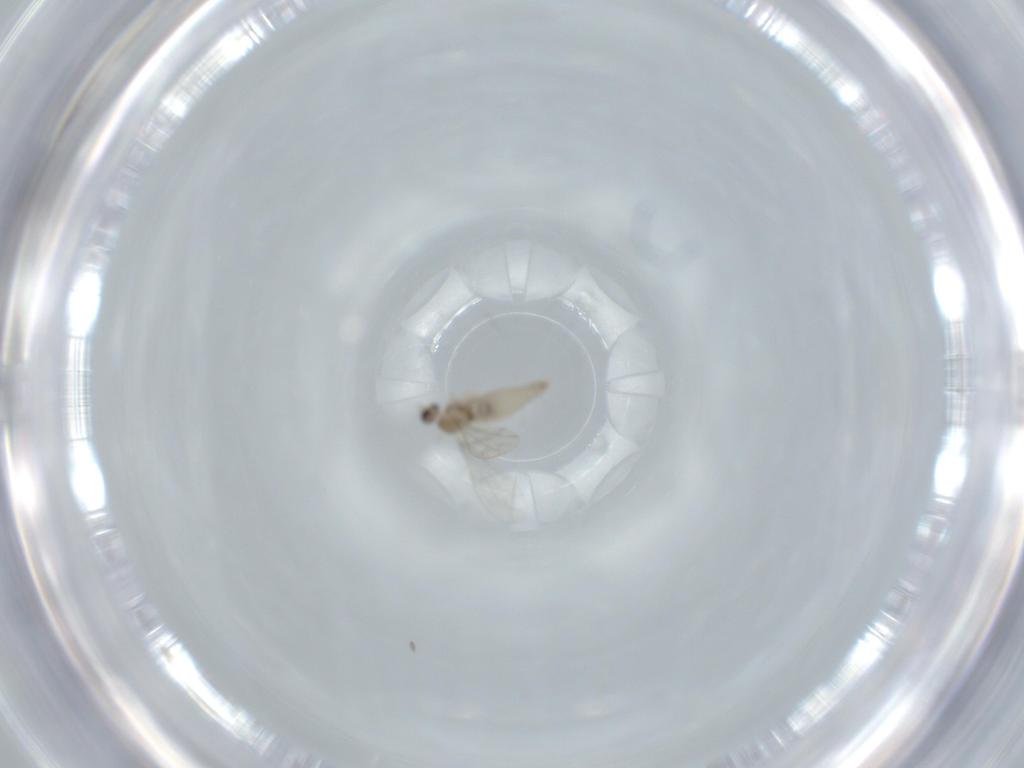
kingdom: Animalia
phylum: Arthropoda
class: Insecta
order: Diptera
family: Cecidomyiidae
